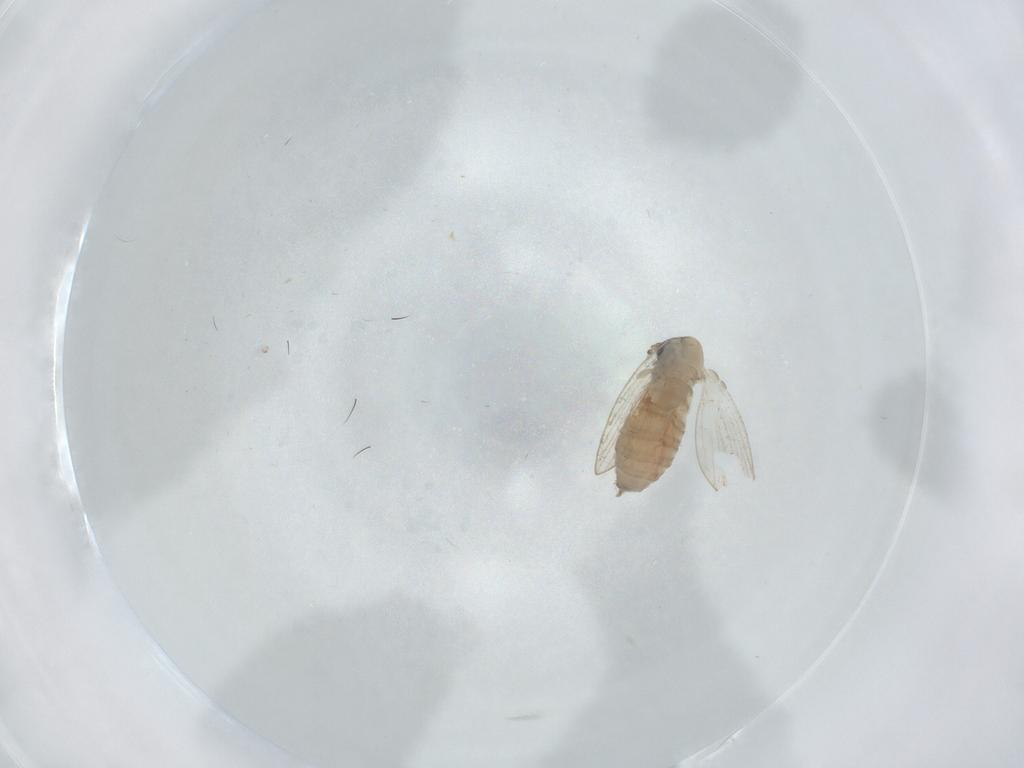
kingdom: Animalia
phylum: Arthropoda
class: Insecta
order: Diptera
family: Psychodidae
